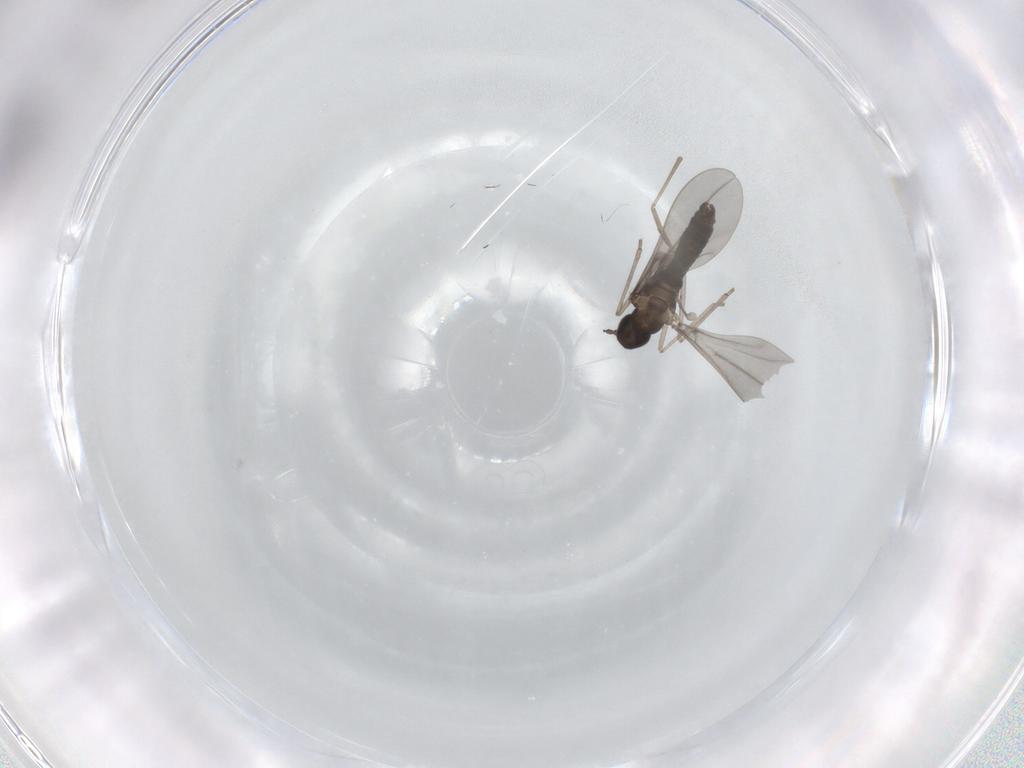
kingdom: Animalia
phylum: Arthropoda
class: Insecta
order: Diptera
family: Cecidomyiidae
